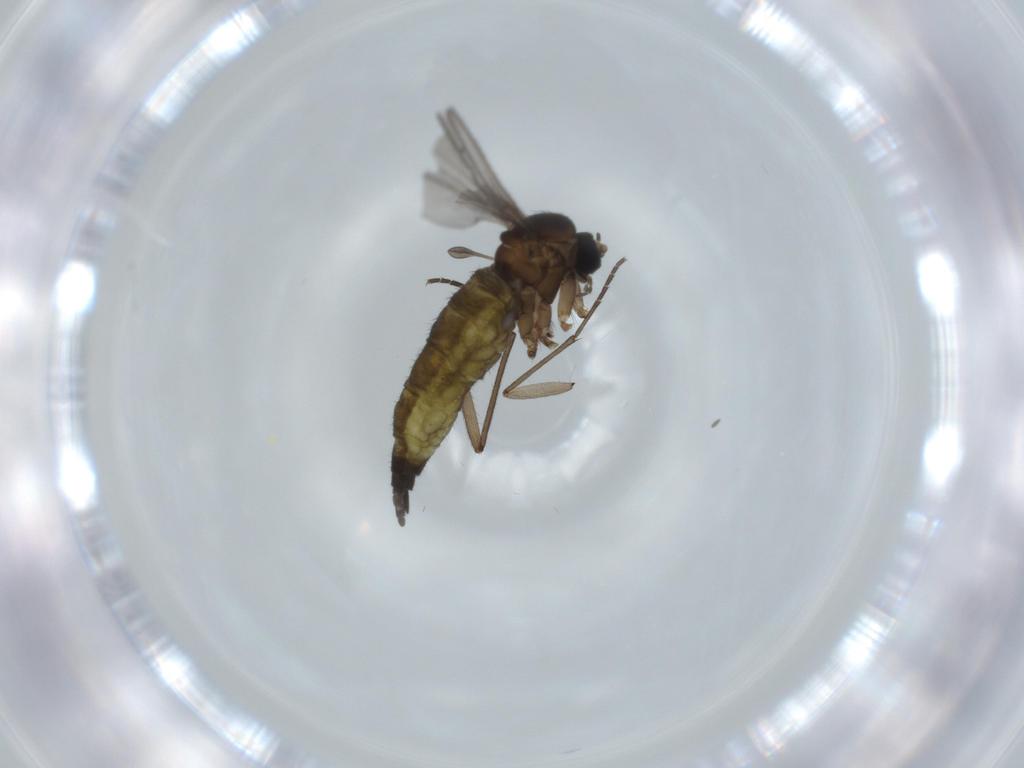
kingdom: Animalia
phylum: Arthropoda
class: Insecta
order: Diptera
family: Sciaridae
